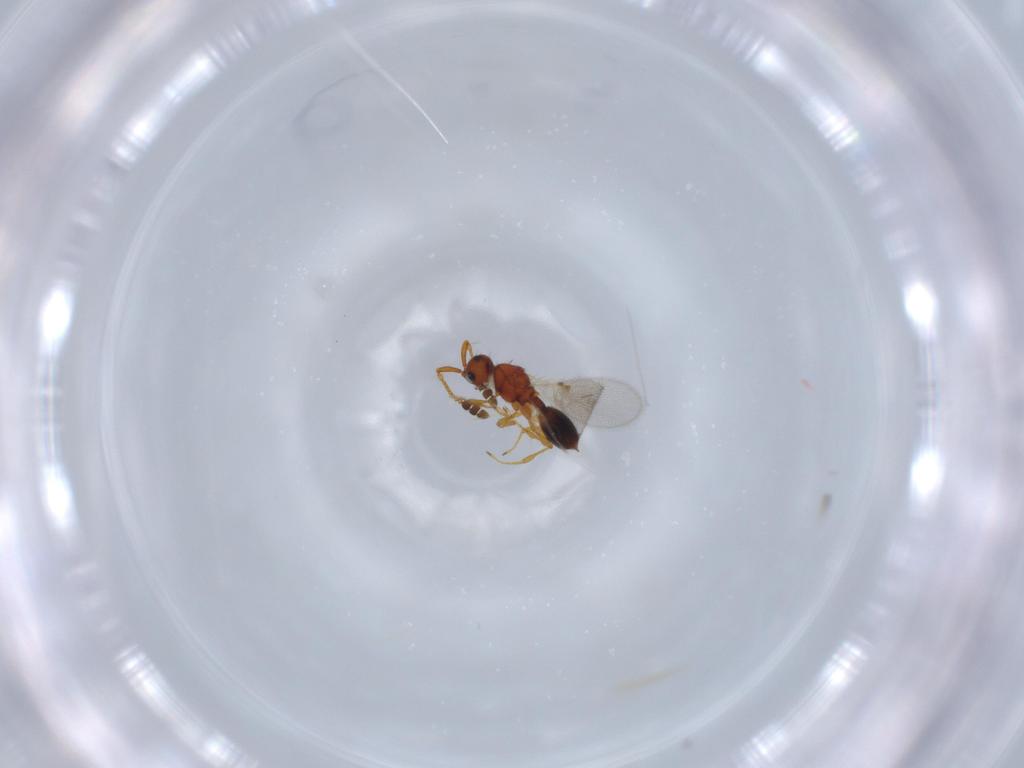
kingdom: Animalia
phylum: Arthropoda
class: Insecta
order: Hymenoptera
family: Diapriidae
